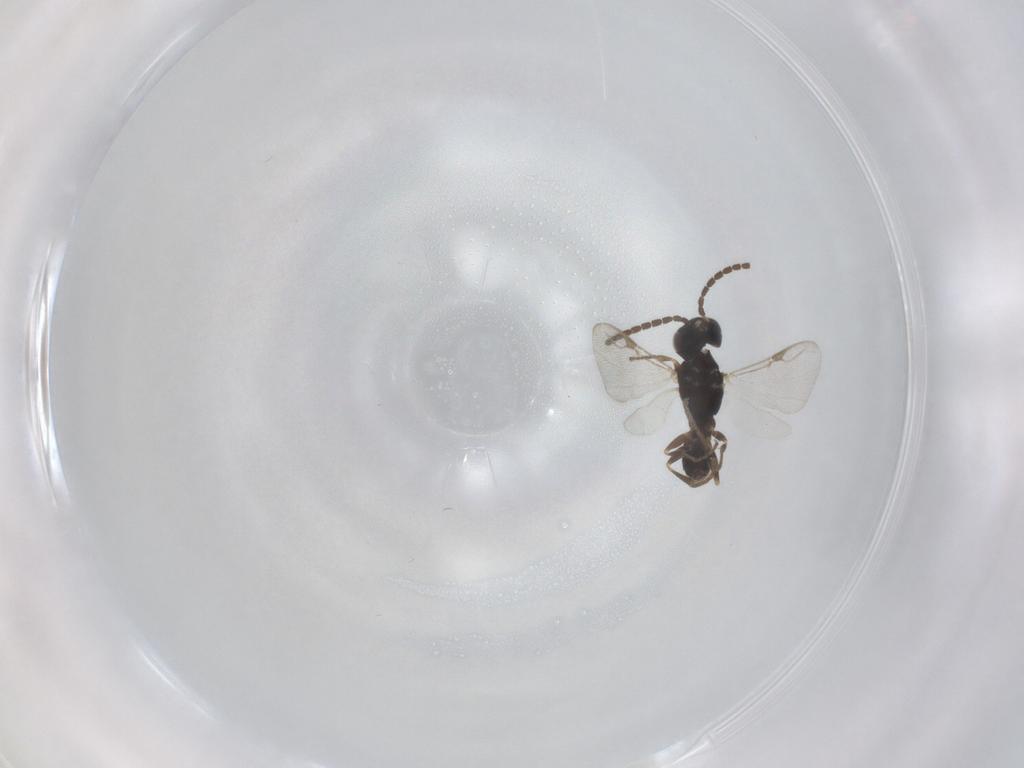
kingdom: Animalia
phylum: Arthropoda
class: Insecta
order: Hymenoptera
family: Dryinidae
